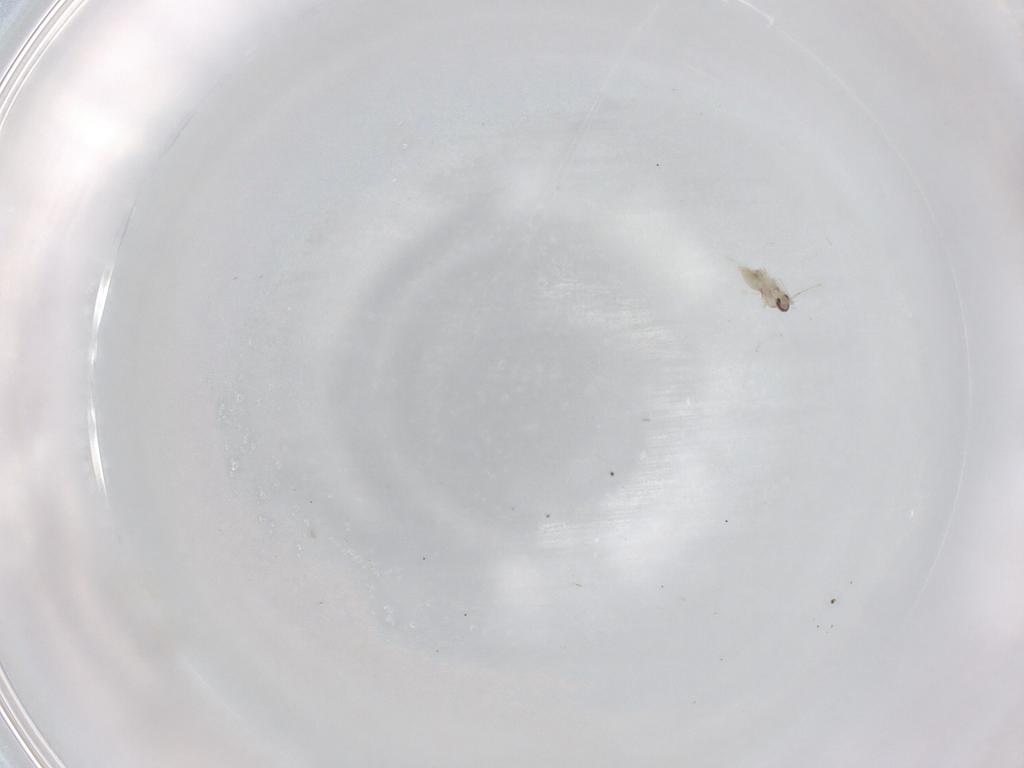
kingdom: Animalia
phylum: Arthropoda
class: Insecta
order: Diptera
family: Cecidomyiidae
